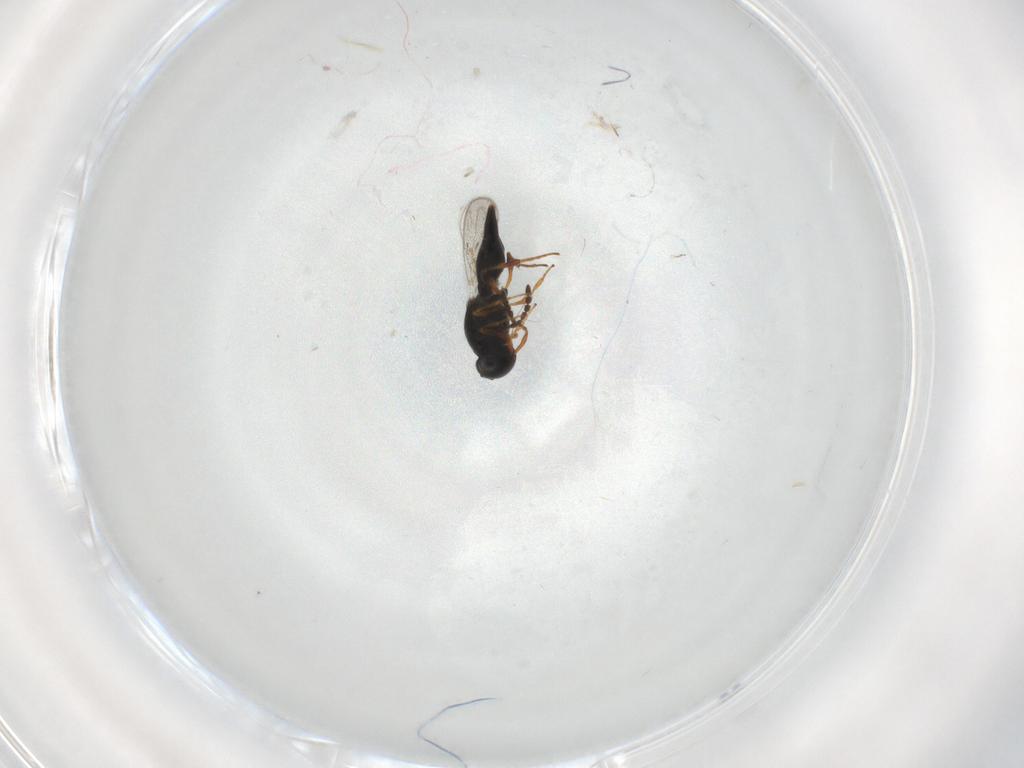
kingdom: Animalia
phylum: Arthropoda
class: Insecta
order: Hymenoptera
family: Platygastridae
